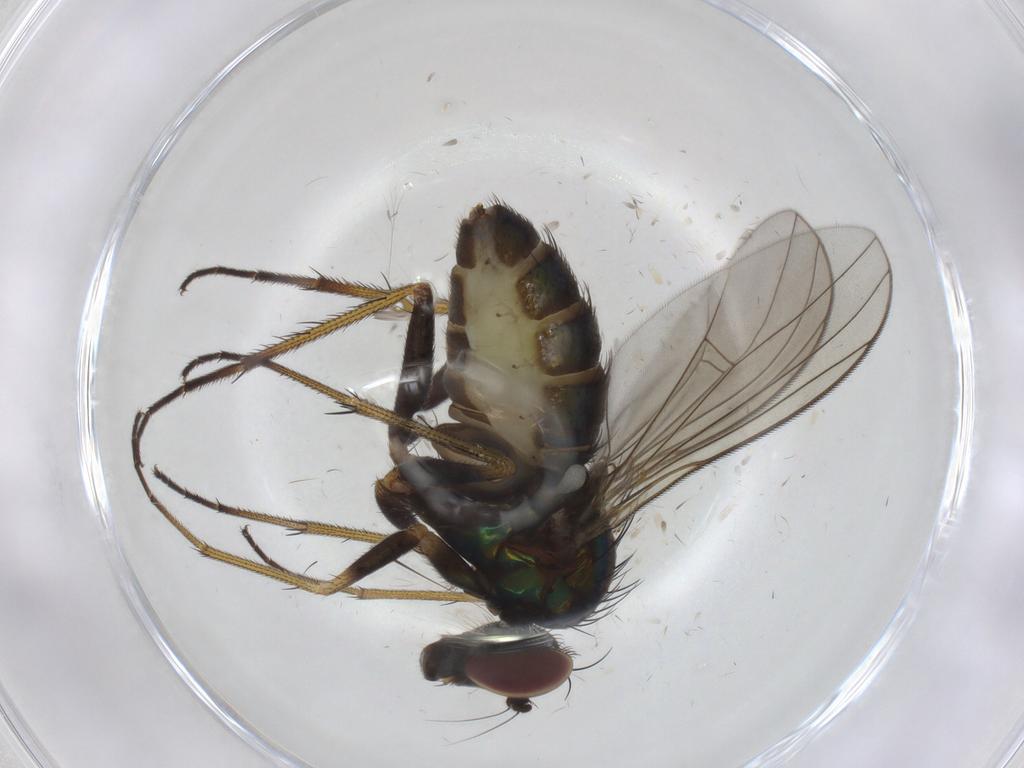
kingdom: Animalia
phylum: Arthropoda
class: Insecta
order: Diptera
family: Dolichopodidae
